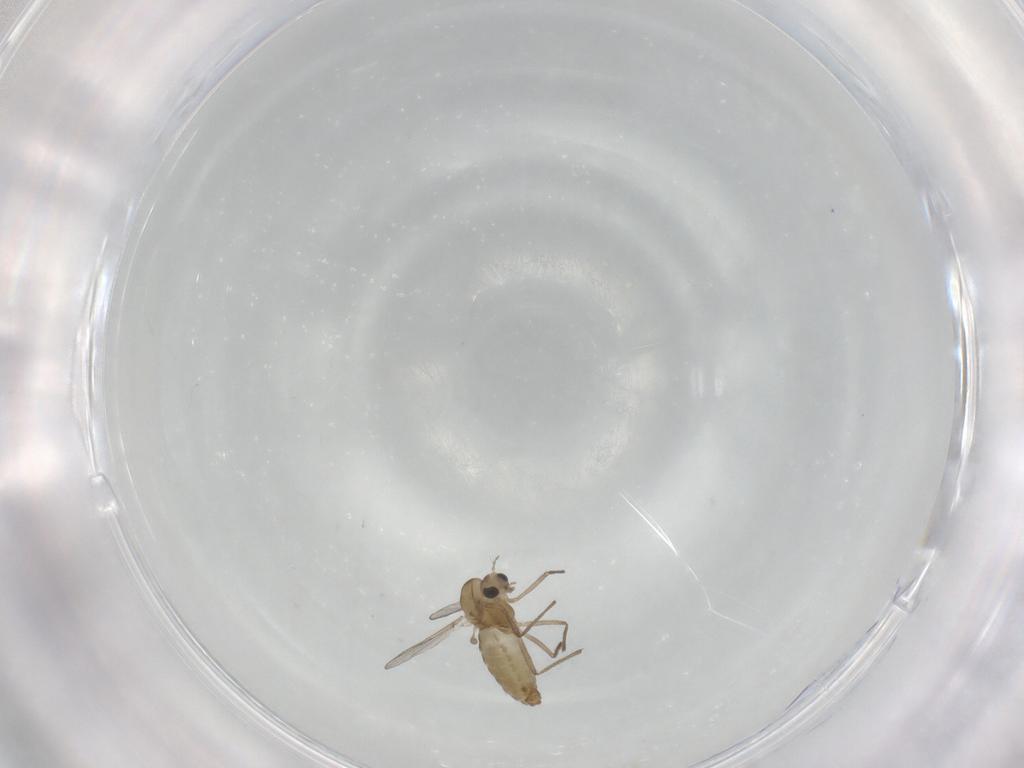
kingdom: Animalia
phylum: Arthropoda
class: Insecta
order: Diptera
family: Chironomidae
